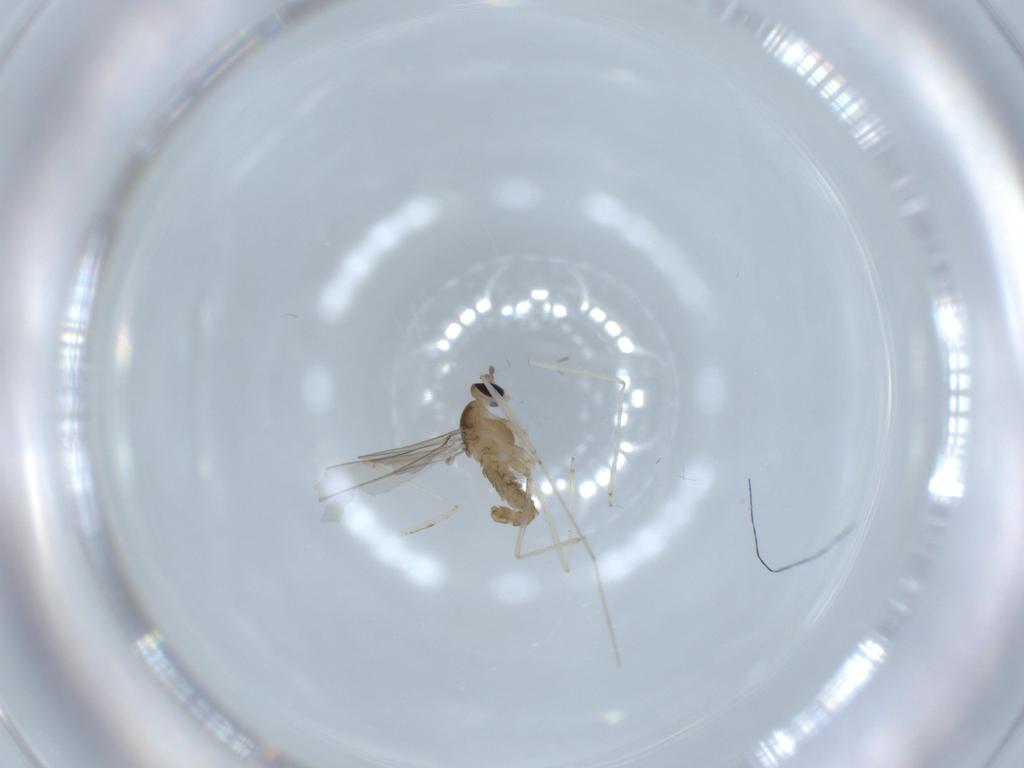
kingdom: Animalia
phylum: Arthropoda
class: Insecta
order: Diptera
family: Cecidomyiidae
